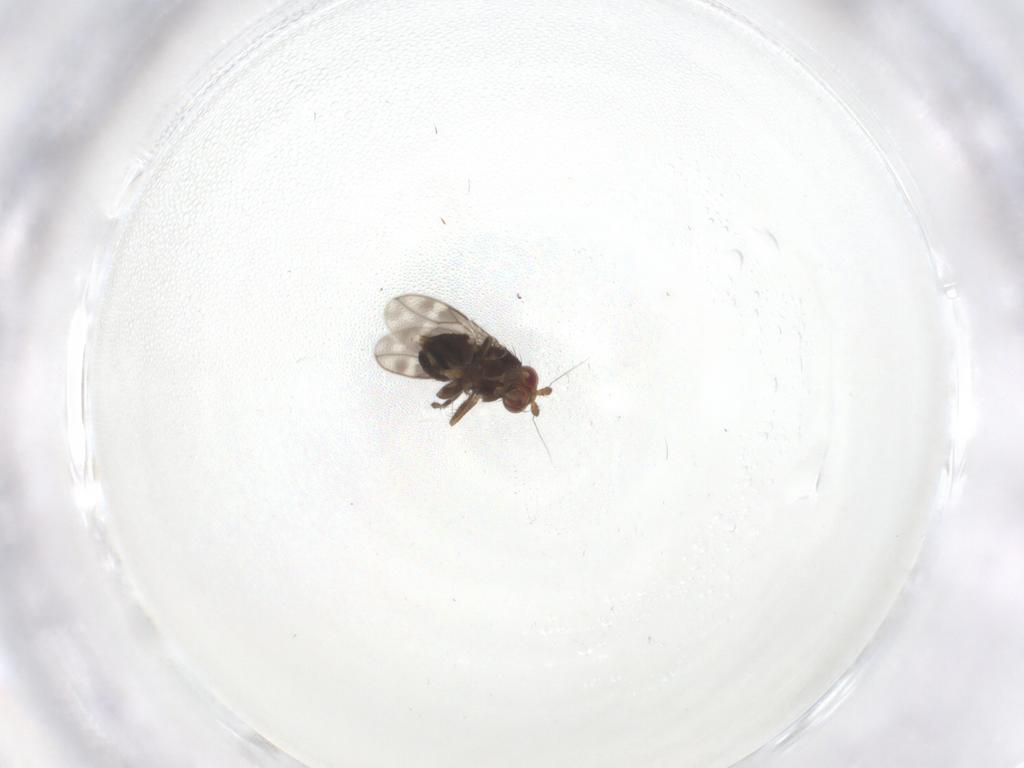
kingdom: Animalia
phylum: Arthropoda
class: Insecta
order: Diptera
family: Sphaeroceridae
